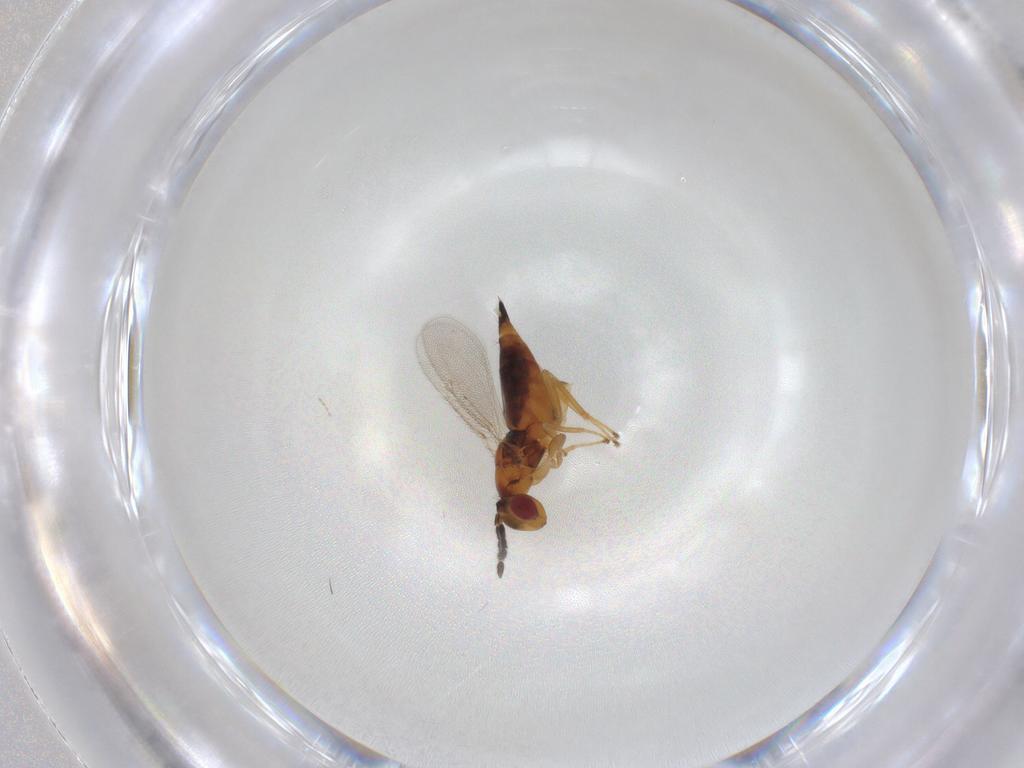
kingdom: Animalia
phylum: Arthropoda
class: Insecta
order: Hymenoptera
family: Eulophidae
